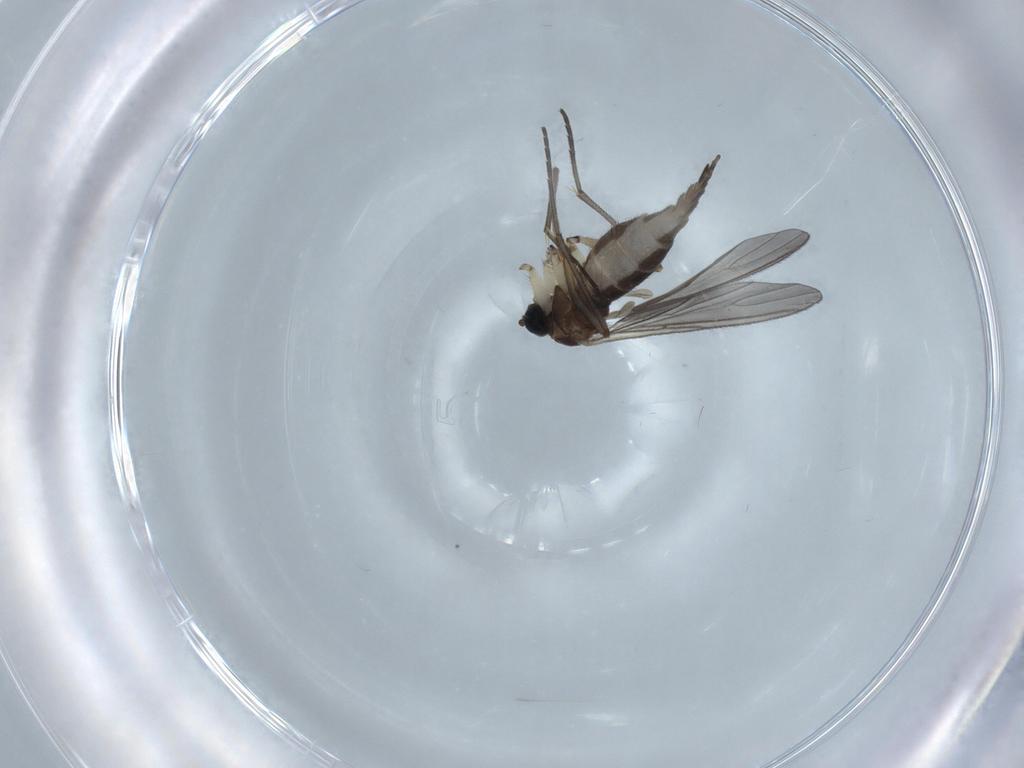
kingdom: Animalia
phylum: Arthropoda
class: Insecta
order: Diptera
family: Sciaridae
